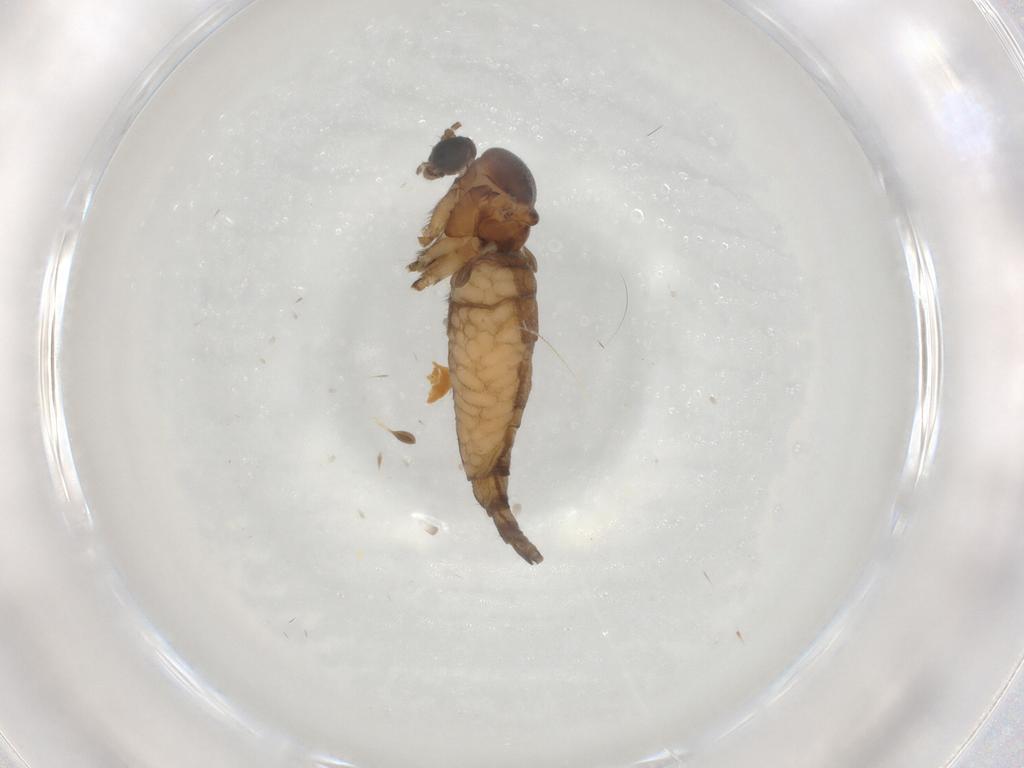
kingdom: Animalia
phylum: Arthropoda
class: Insecta
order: Diptera
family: Sciaridae
